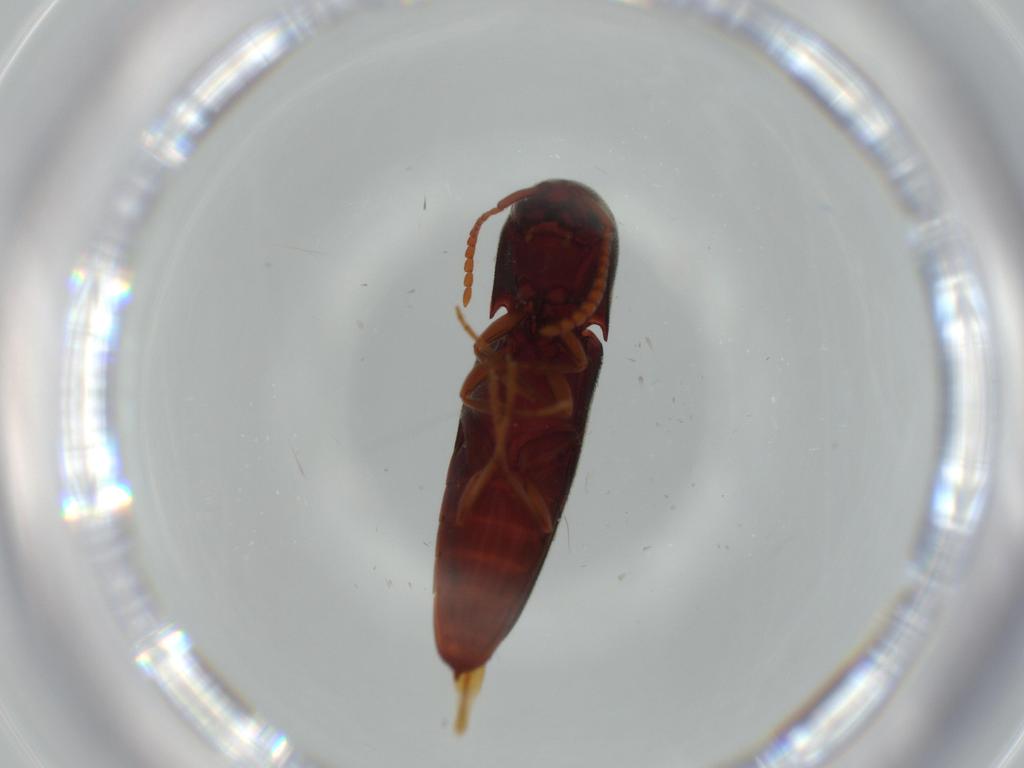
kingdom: Animalia
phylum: Arthropoda
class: Insecta
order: Coleoptera
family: Eucnemidae
